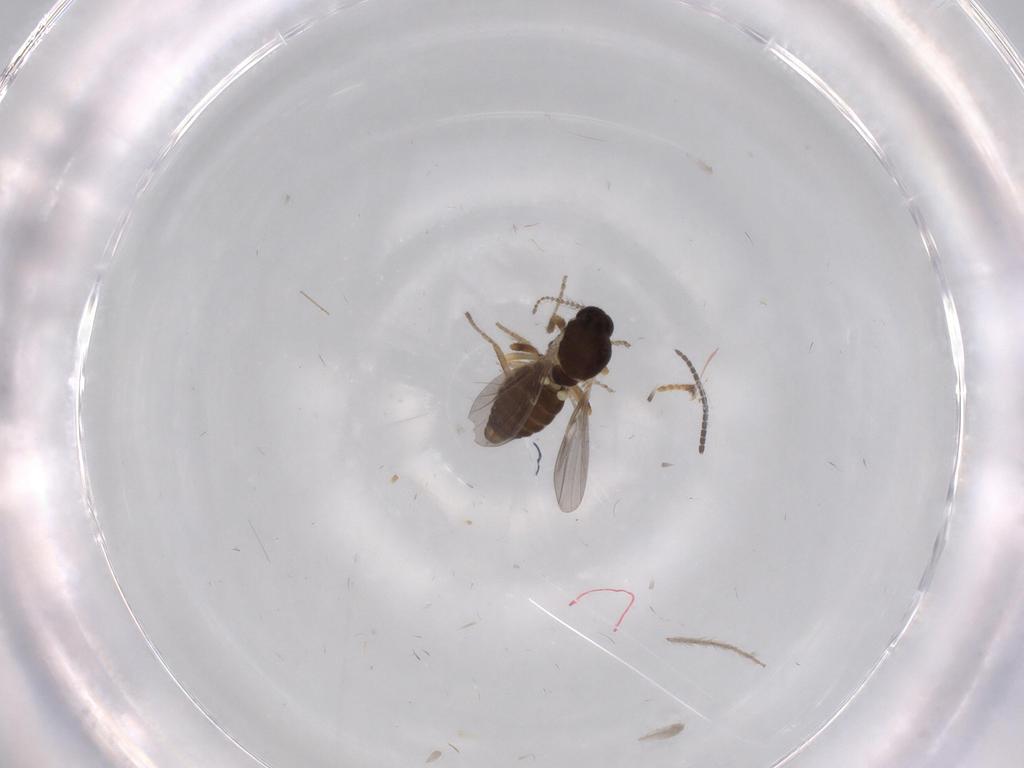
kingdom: Animalia
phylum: Arthropoda
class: Insecta
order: Diptera
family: Ceratopogonidae
